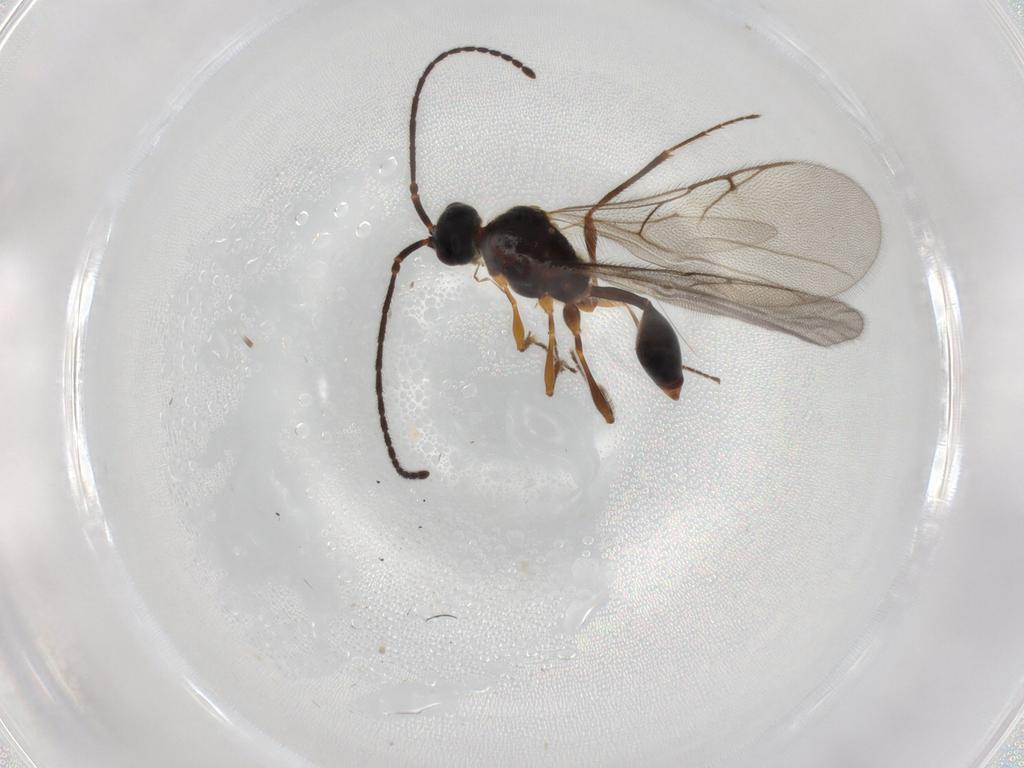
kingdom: Animalia
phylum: Arthropoda
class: Insecta
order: Hymenoptera
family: Diapriidae
